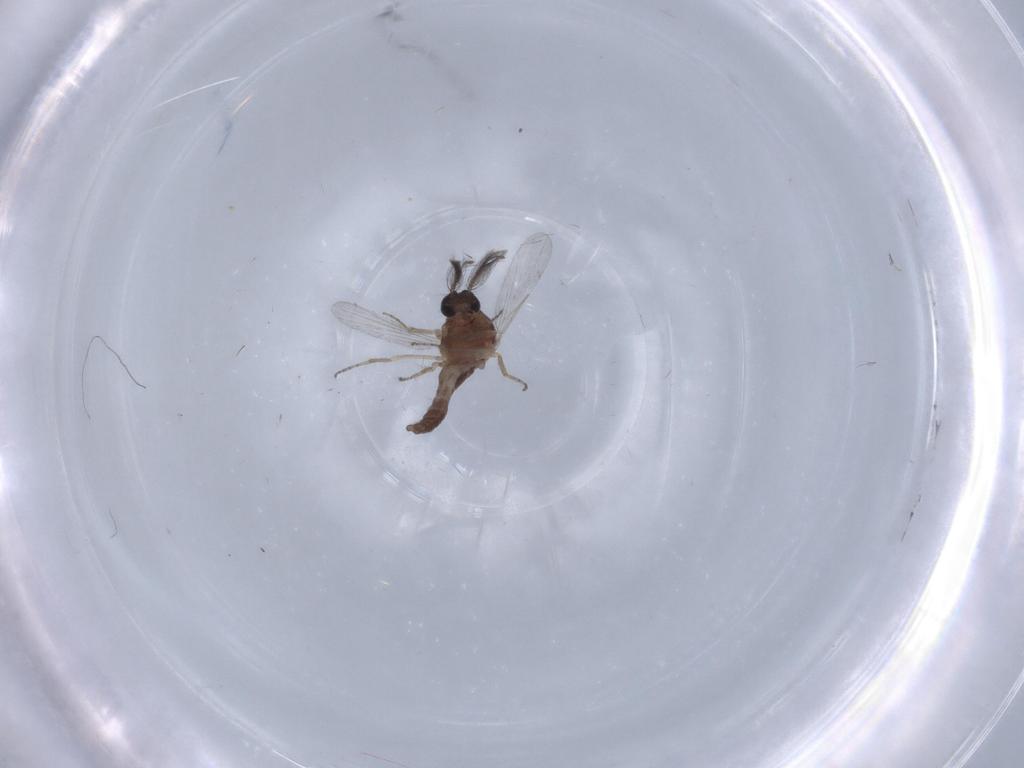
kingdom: Animalia
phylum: Arthropoda
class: Insecta
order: Diptera
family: Ceratopogonidae
